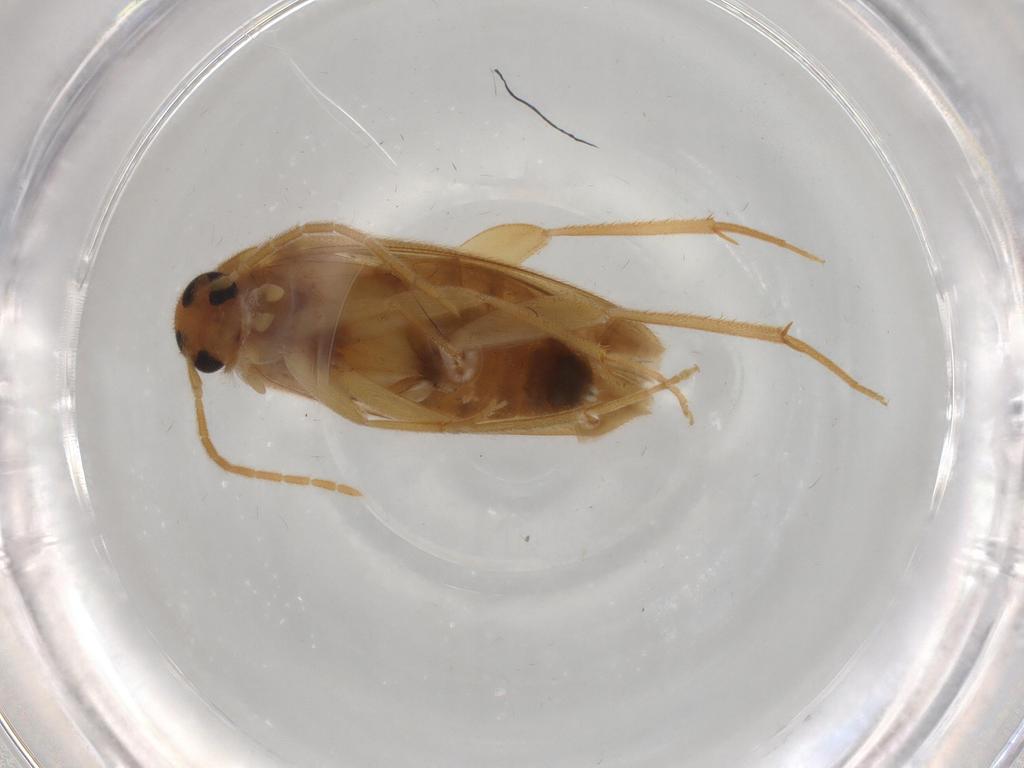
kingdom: Animalia
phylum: Arthropoda
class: Insecta
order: Coleoptera
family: Scraptiidae
